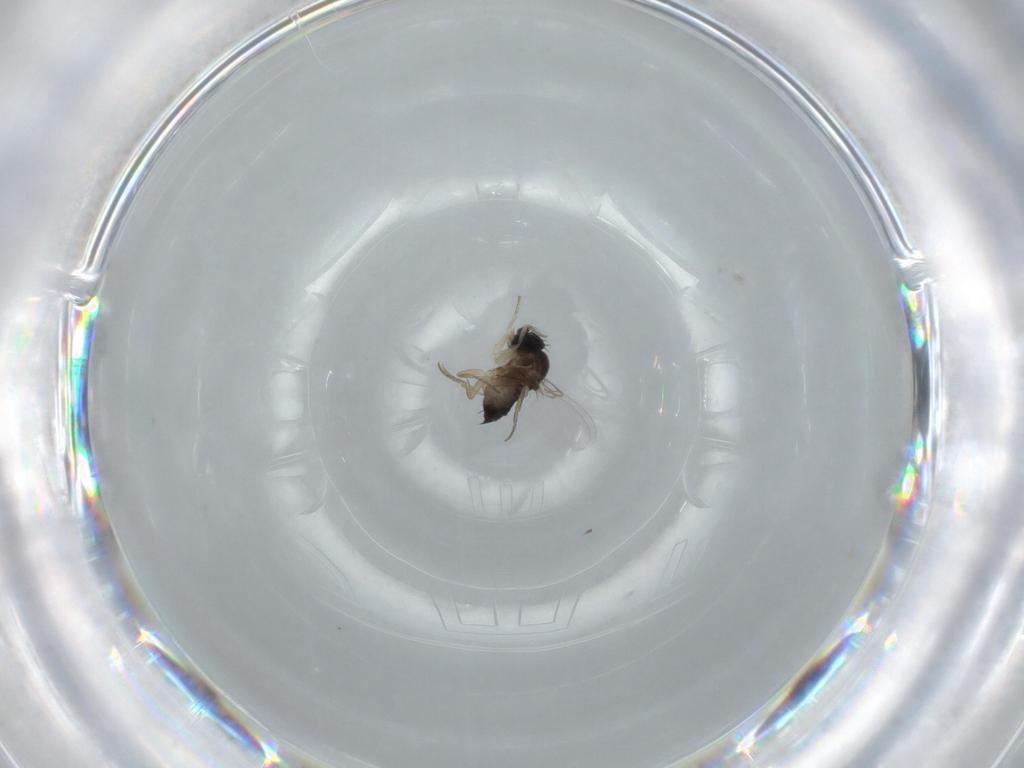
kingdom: Animalia
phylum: Arthropoda
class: Insecta
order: Diptera
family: Phoridae
